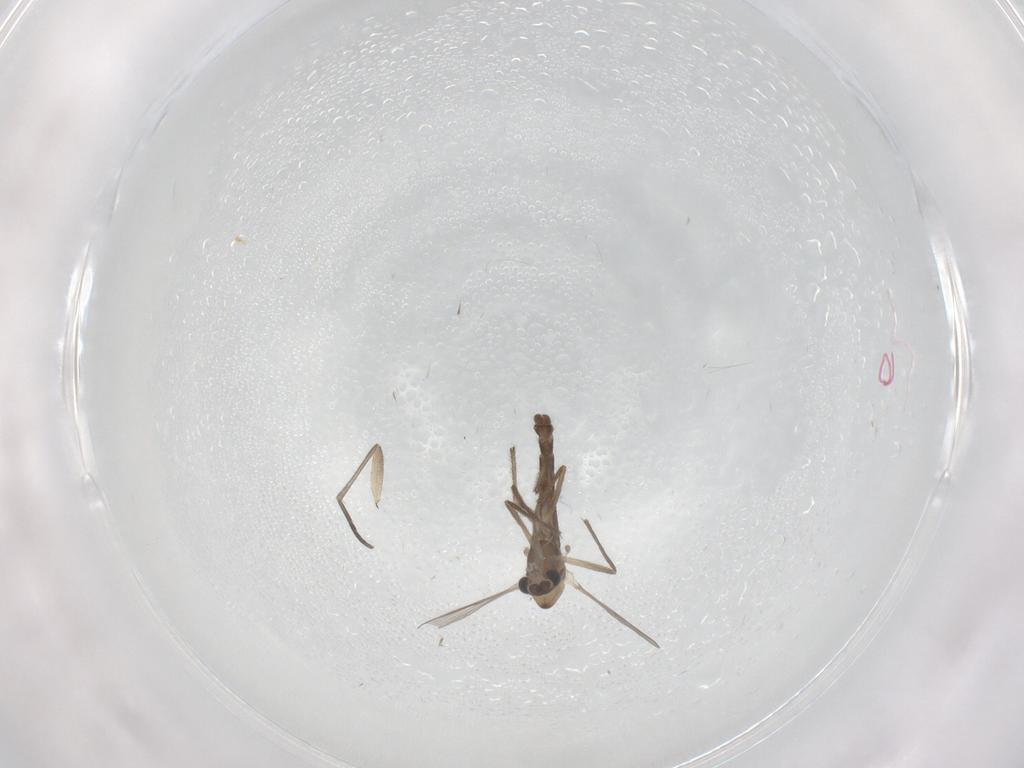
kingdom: Animalia
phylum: Arthropoda
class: Insecta
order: Diptera
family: Chironomidae
